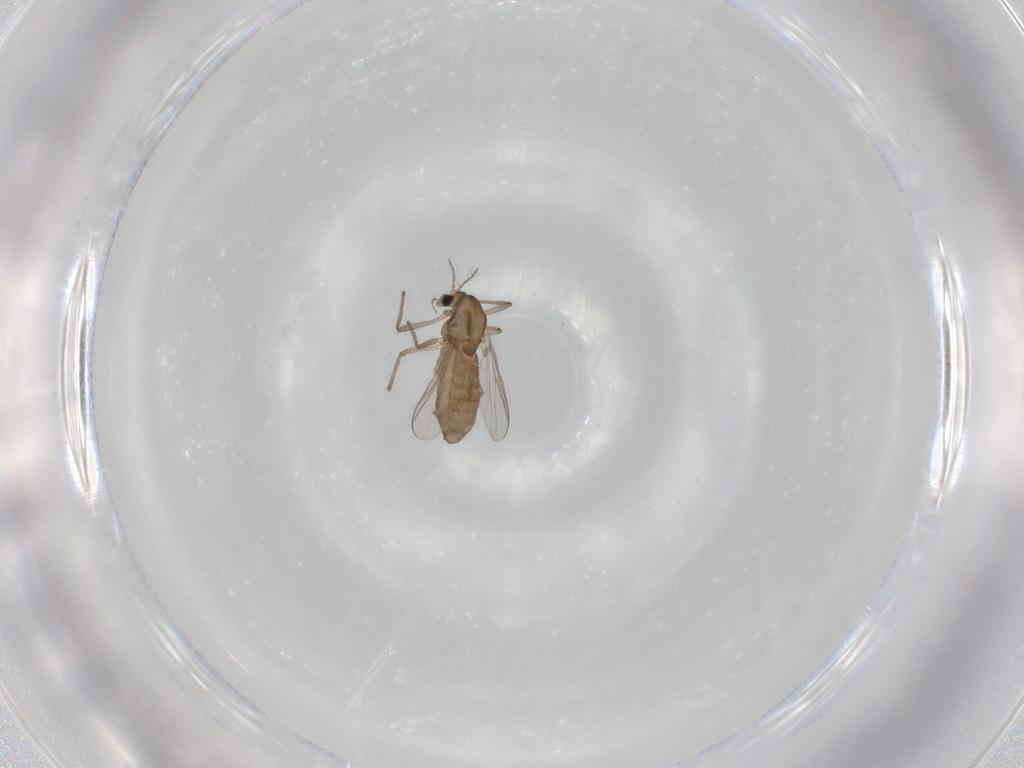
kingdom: Animalia
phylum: Arthropoda
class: Insecta
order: Diptera
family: Chironomidae
